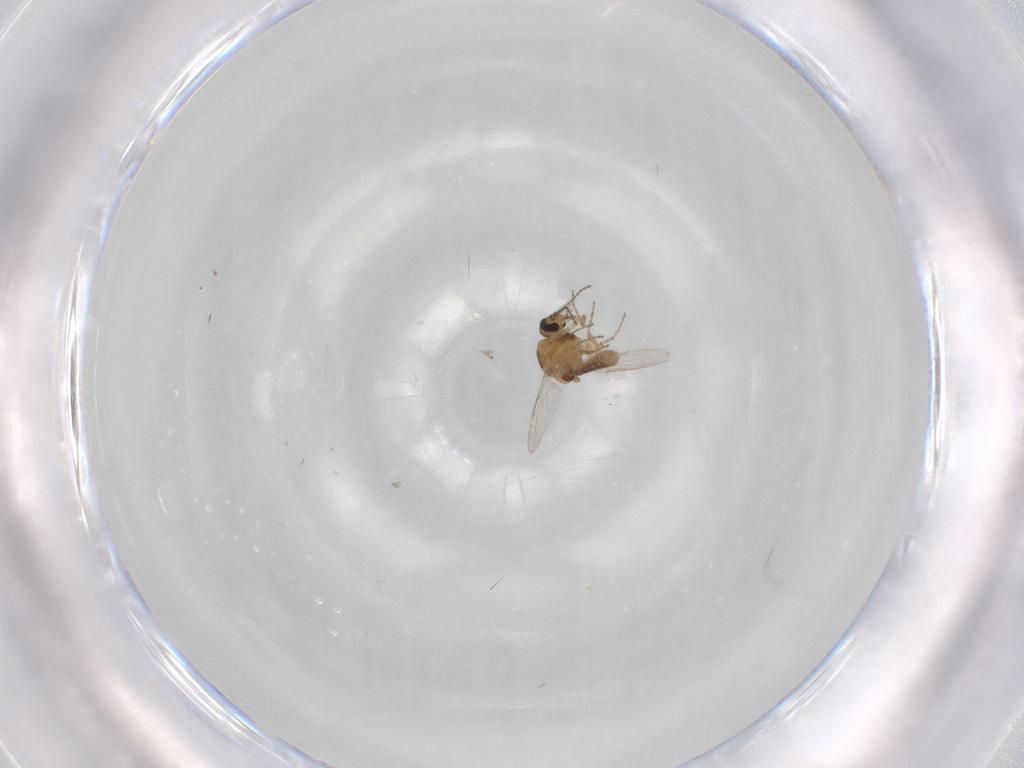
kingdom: Animalia
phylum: Arthropoda
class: Insecta
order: Diptera
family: Ceratopogonidae
